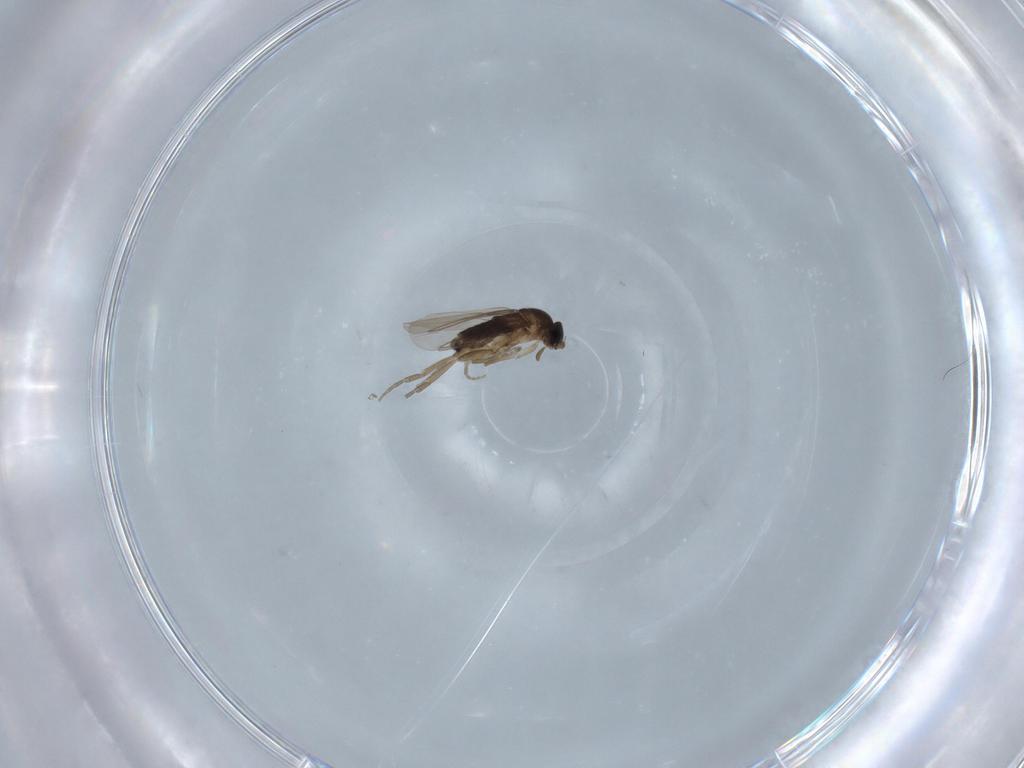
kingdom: Animalia
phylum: Arthropoda
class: Insecta
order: Diptera
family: Phoridae
